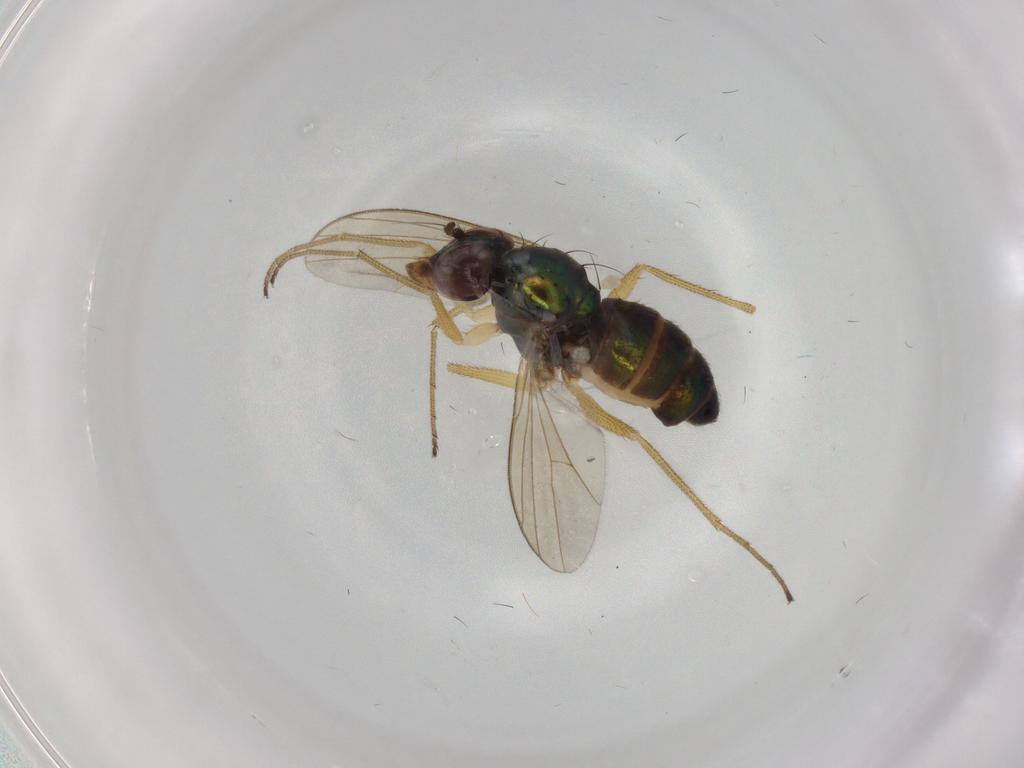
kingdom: Animalia
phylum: Arthropoda
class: Insecta
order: Diptera
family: Dolichopodidae
